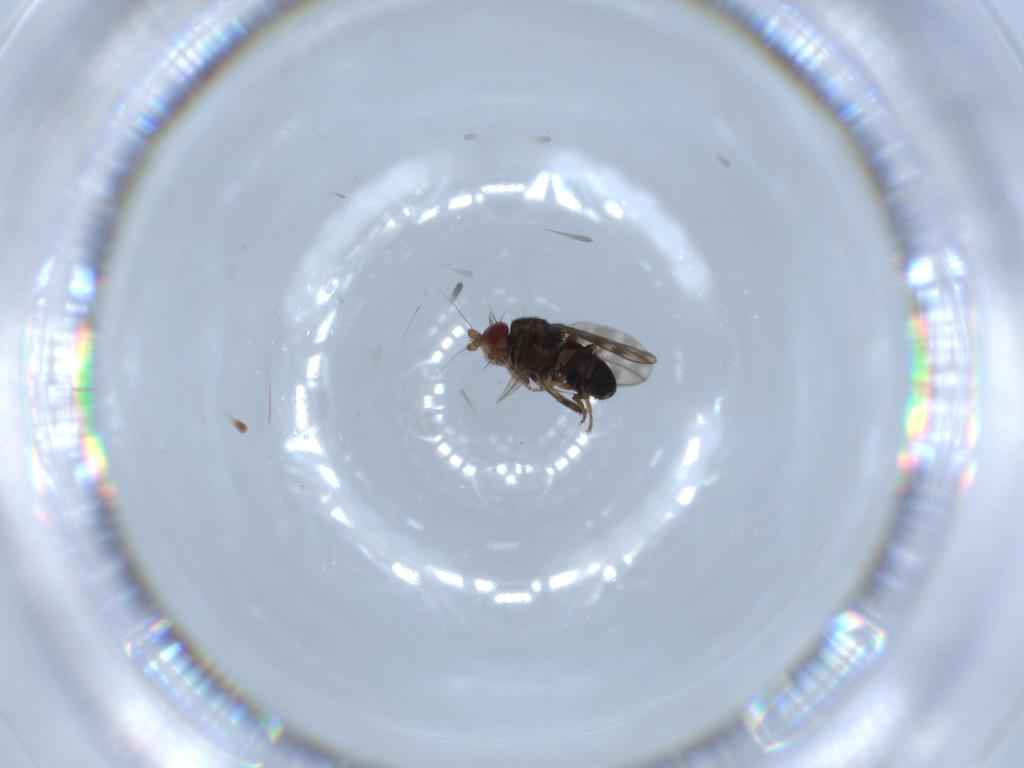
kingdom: Animalia
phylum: Arthropoda
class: Insecta
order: Diptera
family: Sciaridae
